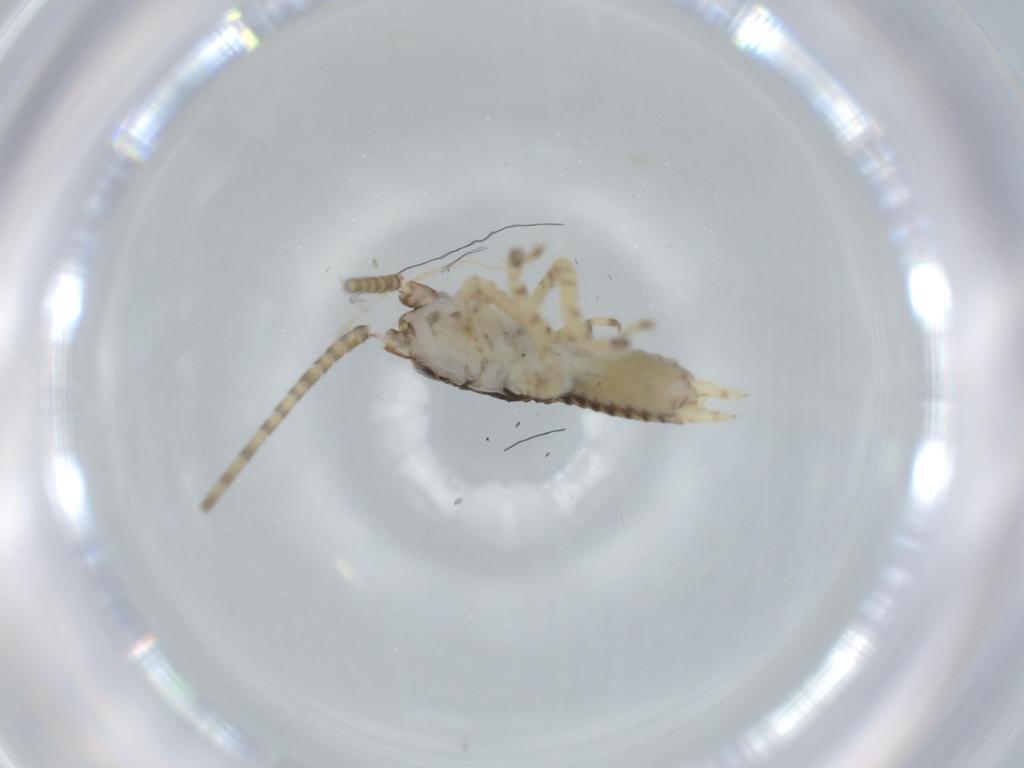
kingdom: Animalia
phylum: Arthropoda
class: Insecta
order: Orthoptera
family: Gryllidae
